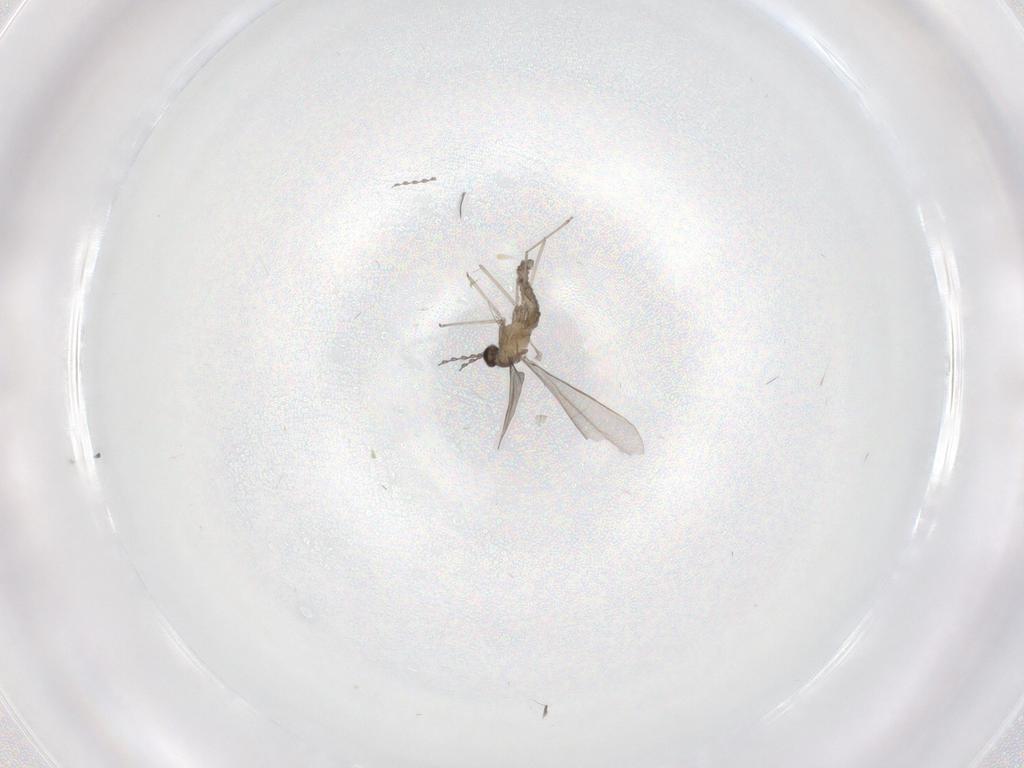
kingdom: Animalia
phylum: Arthropoda
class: Insecta
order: Diptera
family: Cecidomyiidae
